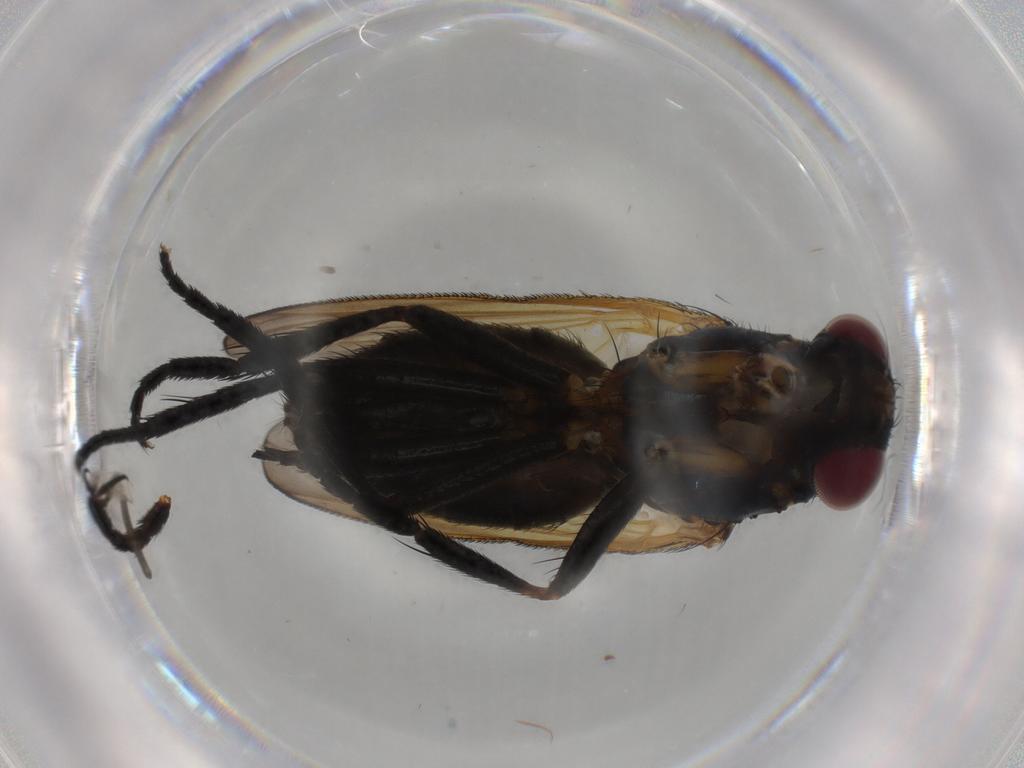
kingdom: Animalia
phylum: Arthropoda
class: Insecta
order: Diptera
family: Fannia
